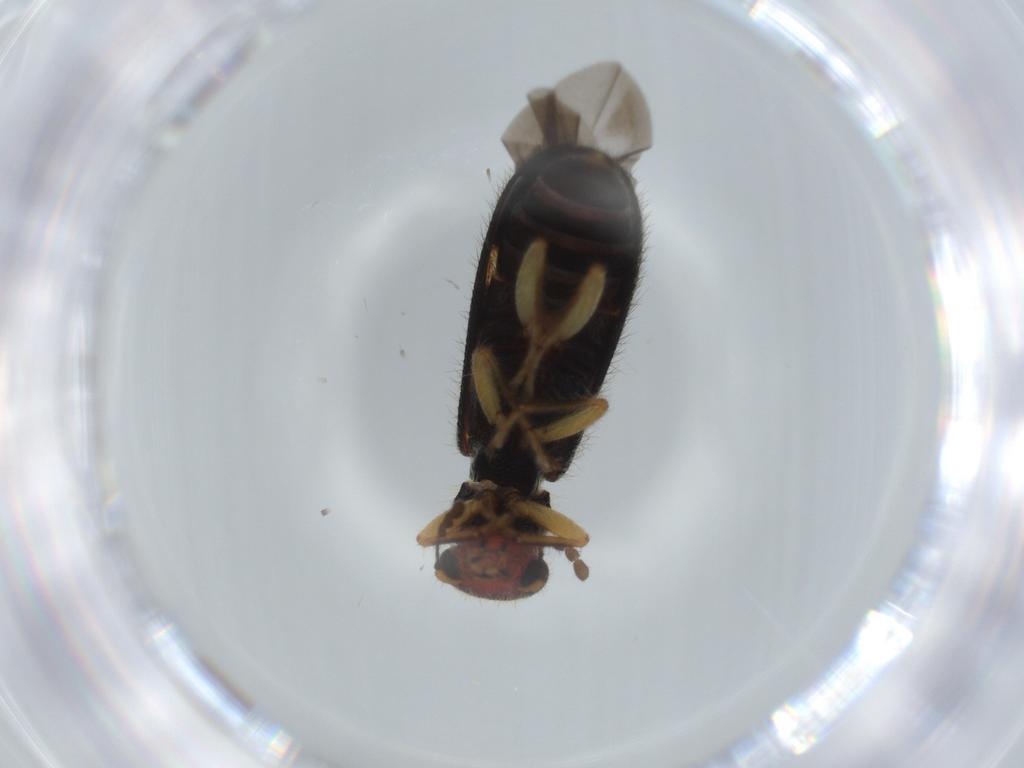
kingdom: Animalia
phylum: Arthropoda
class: Insecta
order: Coleoptera
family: Cleridae
